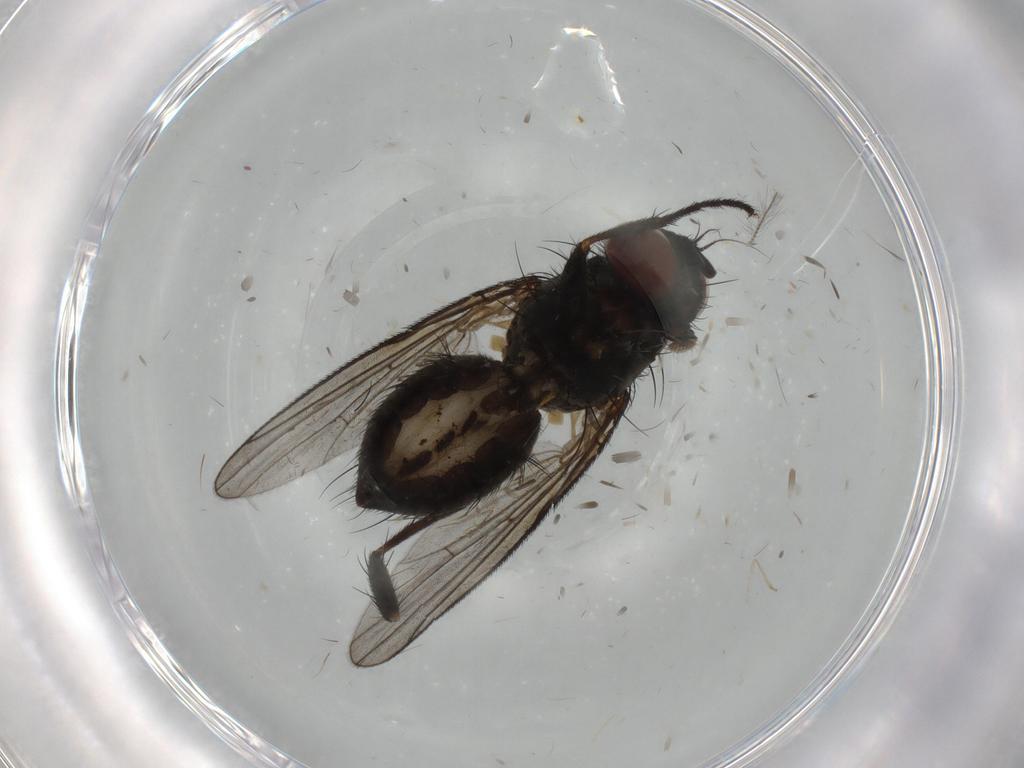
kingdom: Animalia
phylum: Arthropoda
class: Insecta
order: Diptera
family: Muscidae
